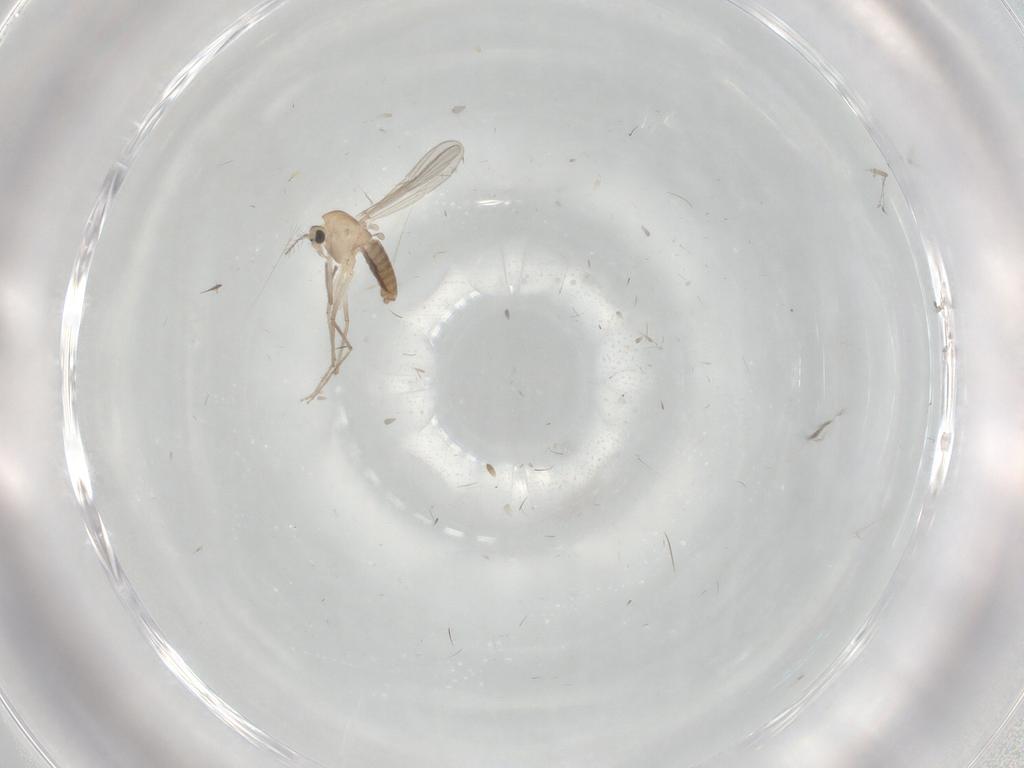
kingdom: Animalia
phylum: Arthropoda
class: Insecta
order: Diptera
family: Chironomidae
